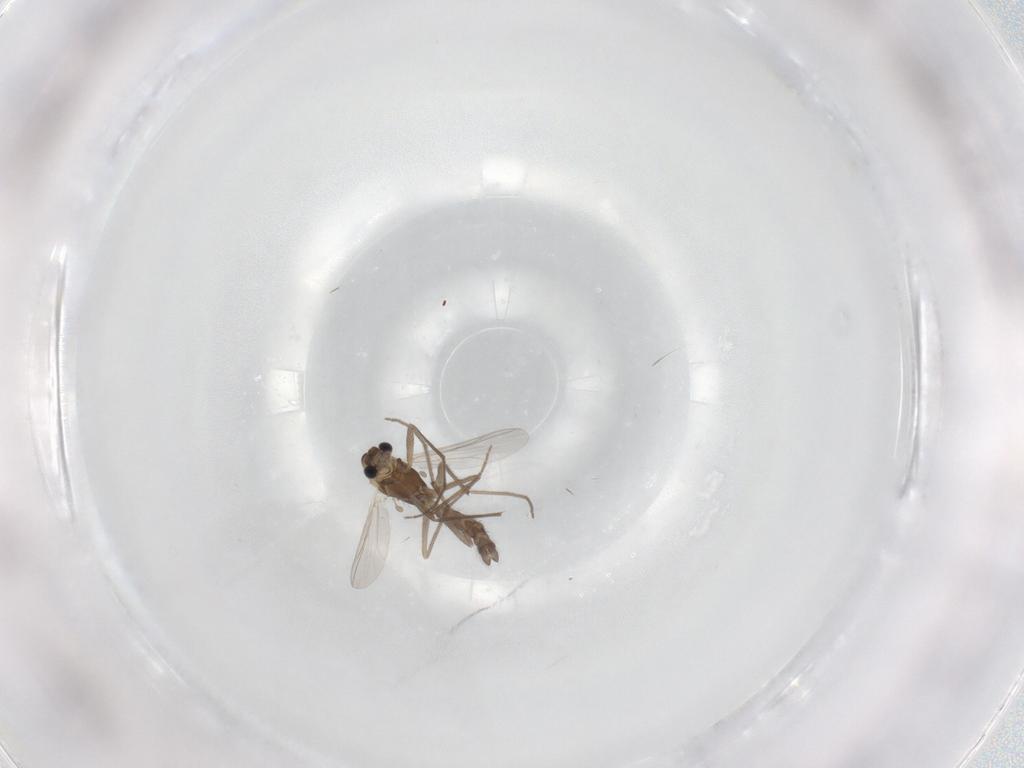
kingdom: Animalia
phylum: Arthropoda
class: Insecta
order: Diptera
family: Chironomidae
